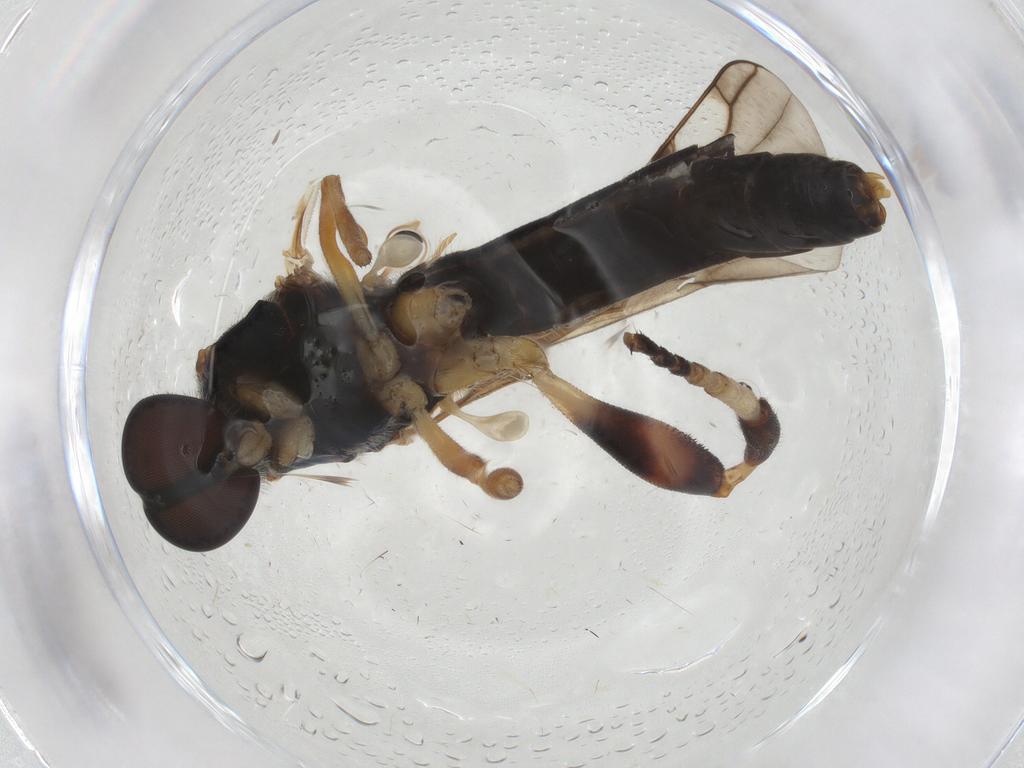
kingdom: Animalia
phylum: Arthropoda
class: Insecta
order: Diptera
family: Stratiomyidae
